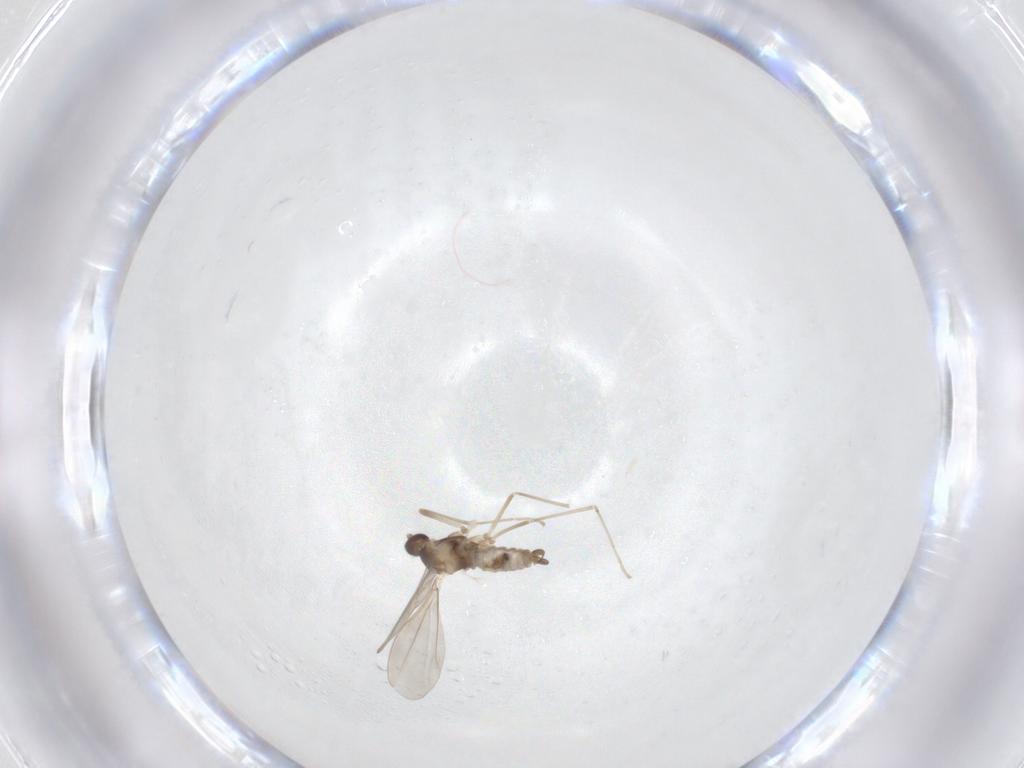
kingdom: Animalia
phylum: Arthropoda
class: Insecta
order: Diptera
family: Cecidomyiidae
